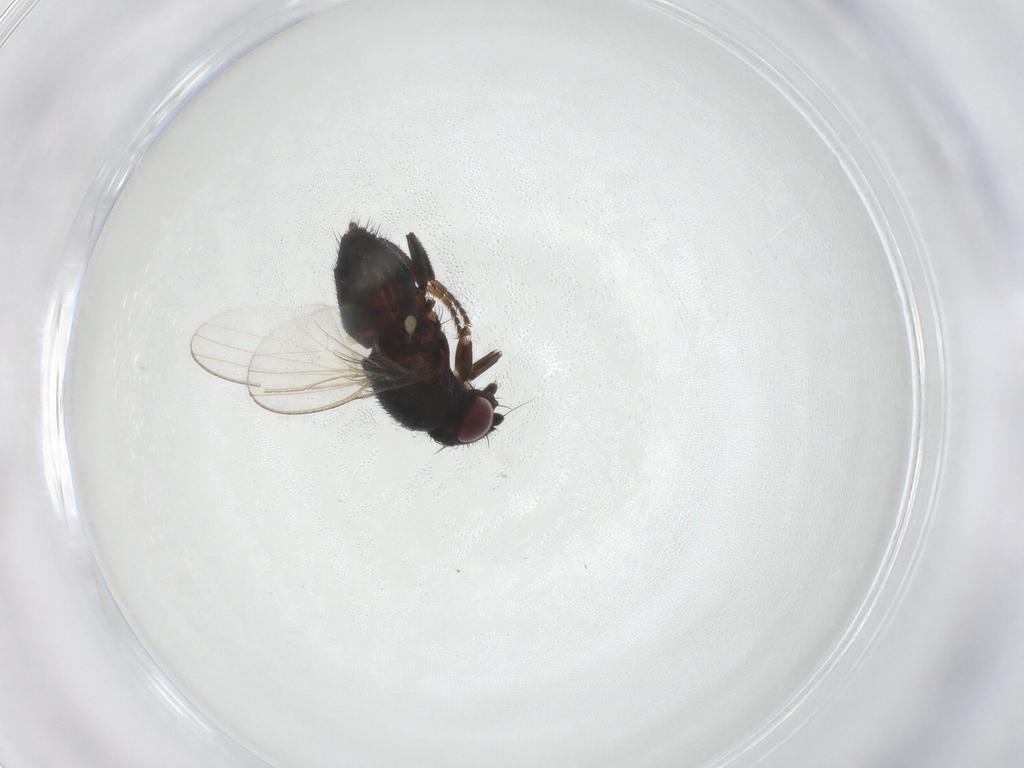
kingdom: Animalia
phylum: Arthropoda
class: Insecta
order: Diptera
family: Milichiidae
